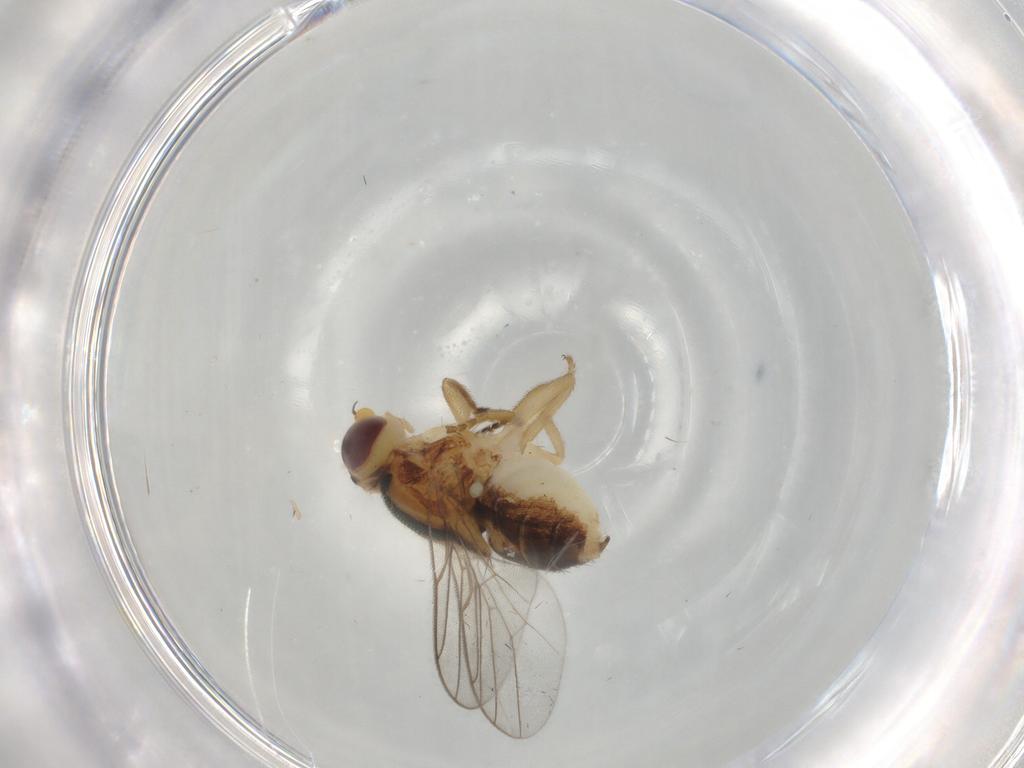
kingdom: Animalia
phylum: Arthropoda
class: Insecta
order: Diptera
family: Chloropidae
